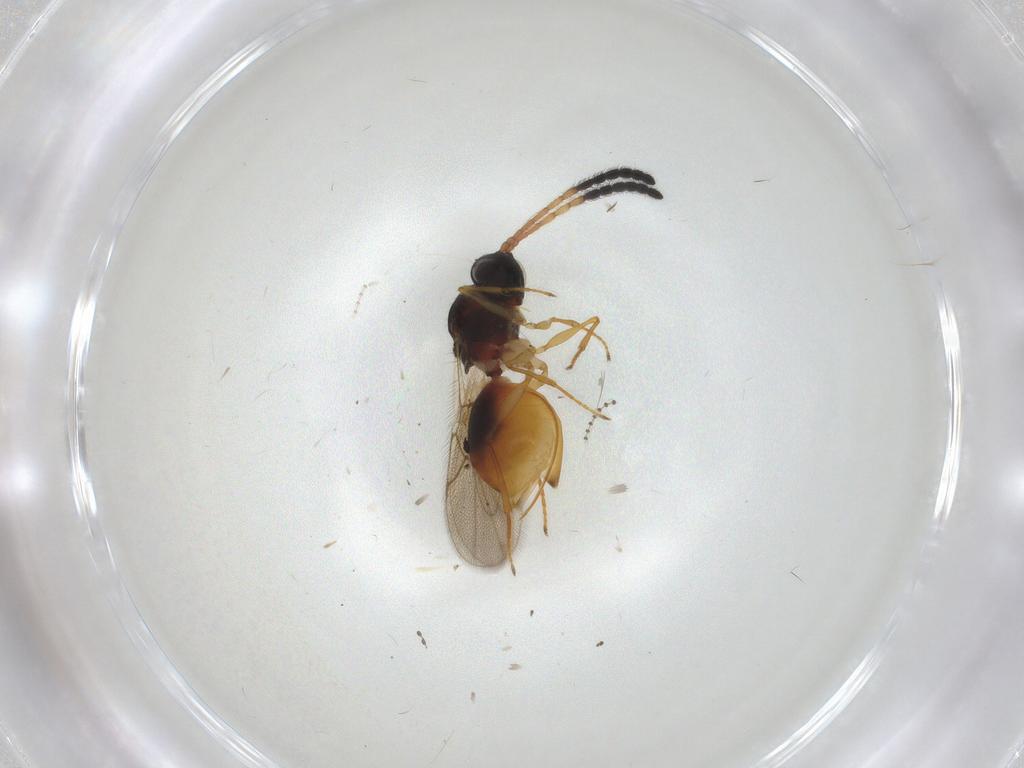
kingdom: Animalia
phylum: Arthropoda
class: Insecta
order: Hymenoptera
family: Figitidae
